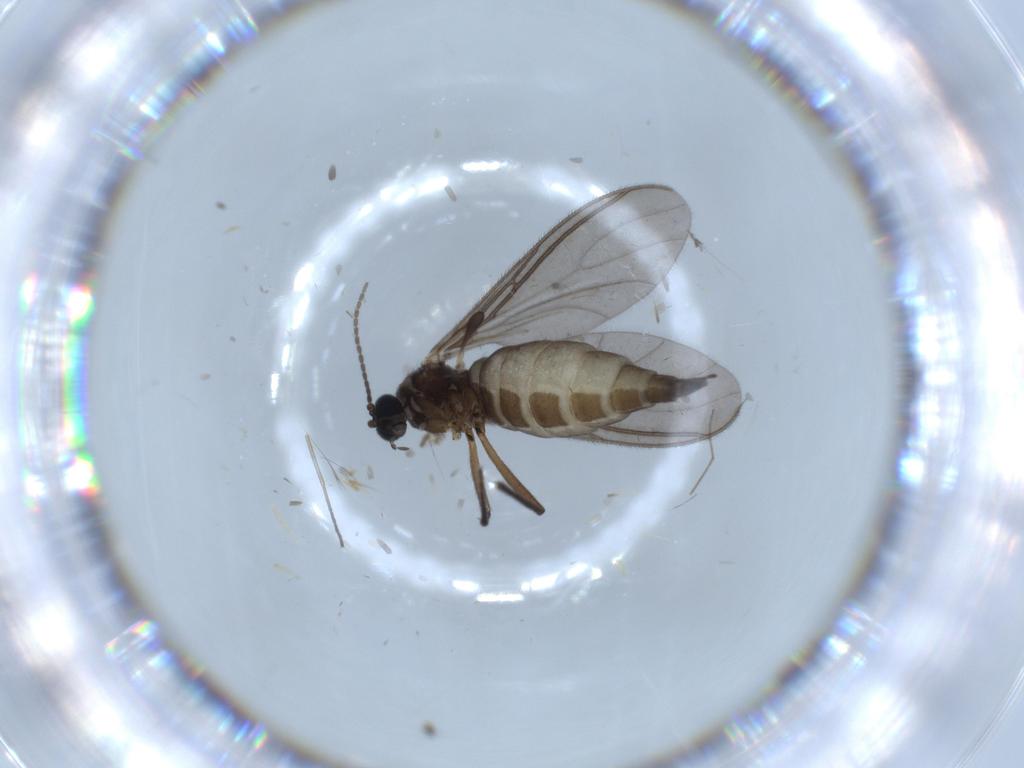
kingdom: Animalia
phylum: Arthropoda
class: Insecta
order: Diptera
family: Sciaridae
